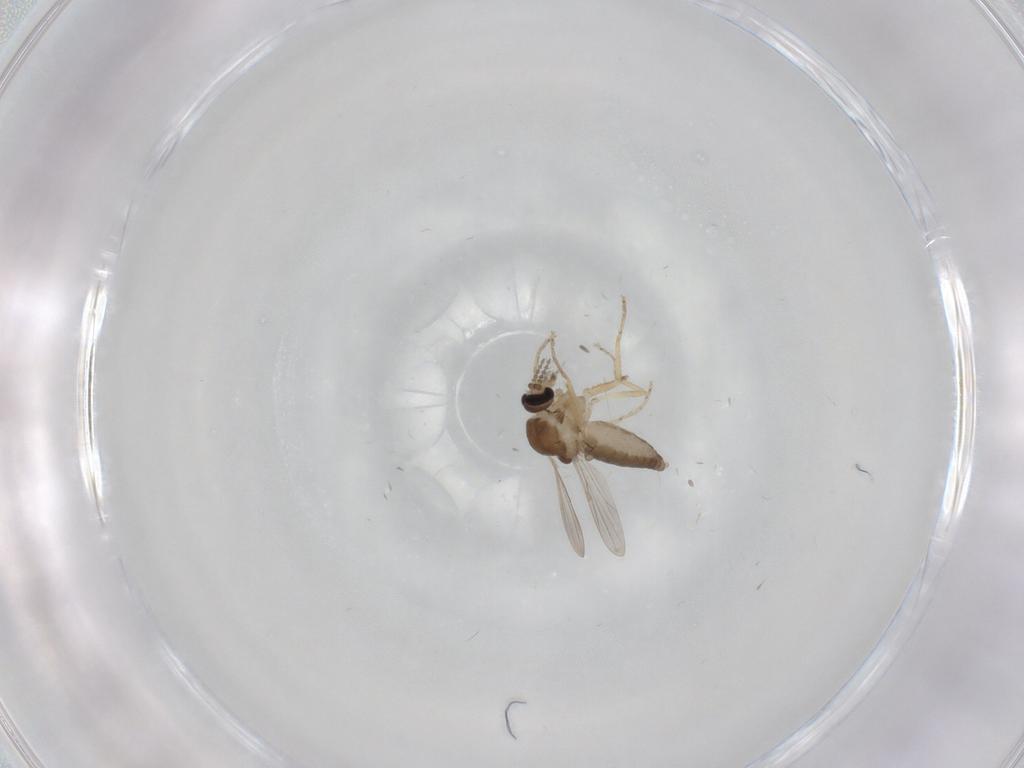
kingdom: Animalia
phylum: Arthropoda
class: Insecta
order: Diptera
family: Ceratopogonidae
